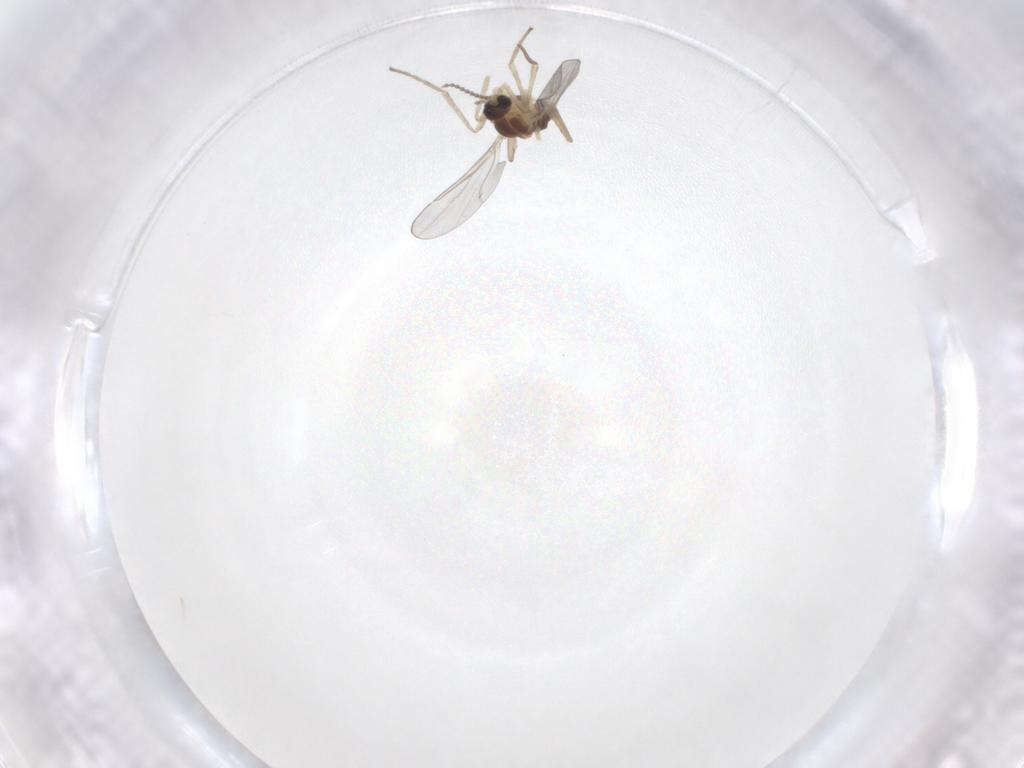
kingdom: Animalia
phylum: Arthropoda
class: Insecta
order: Diptera
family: Cecidomyiidae
